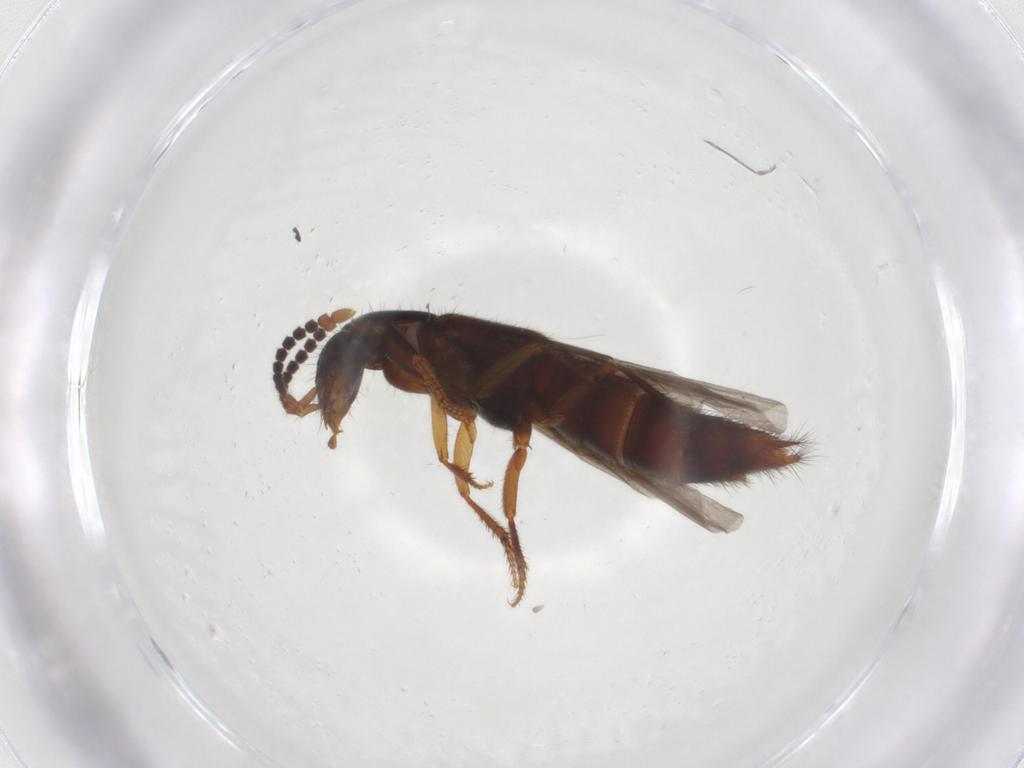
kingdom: Animalia
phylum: Arthropoda
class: Insecta
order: Coleoptera
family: Staphylinidae
